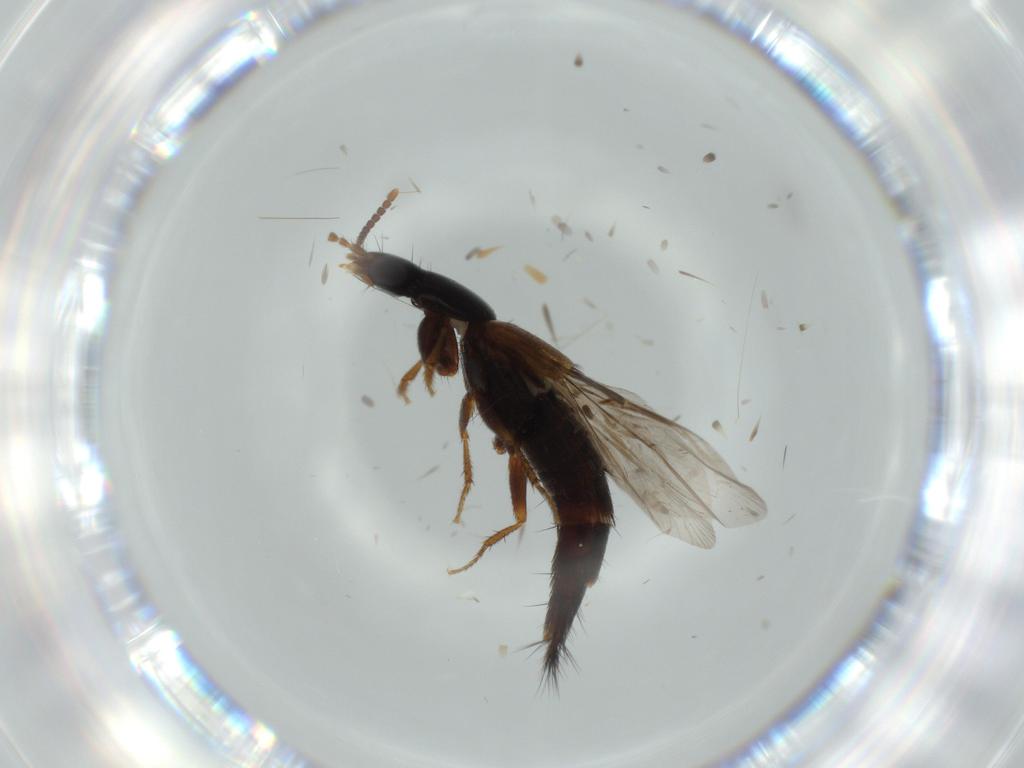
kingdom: Animalia
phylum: Arthropoda
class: Insecta
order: Coleoptera
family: Staphylinidae
